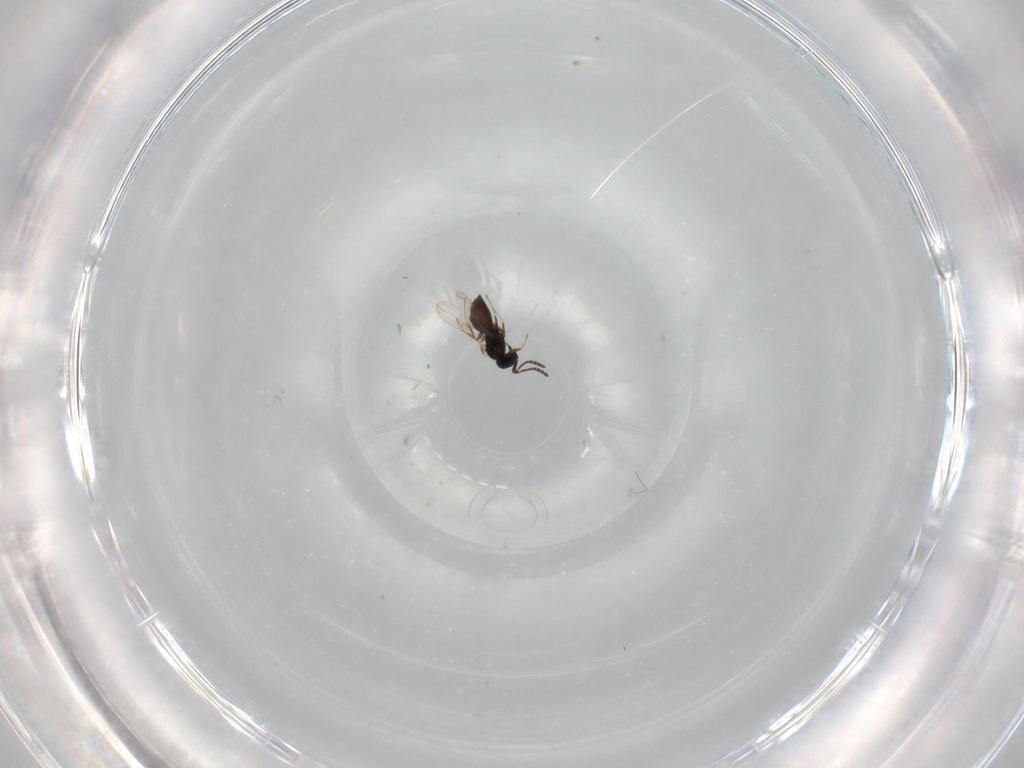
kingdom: Animalia
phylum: Arthropoda
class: Insecta
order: Hymenoptera
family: Scelionidae
